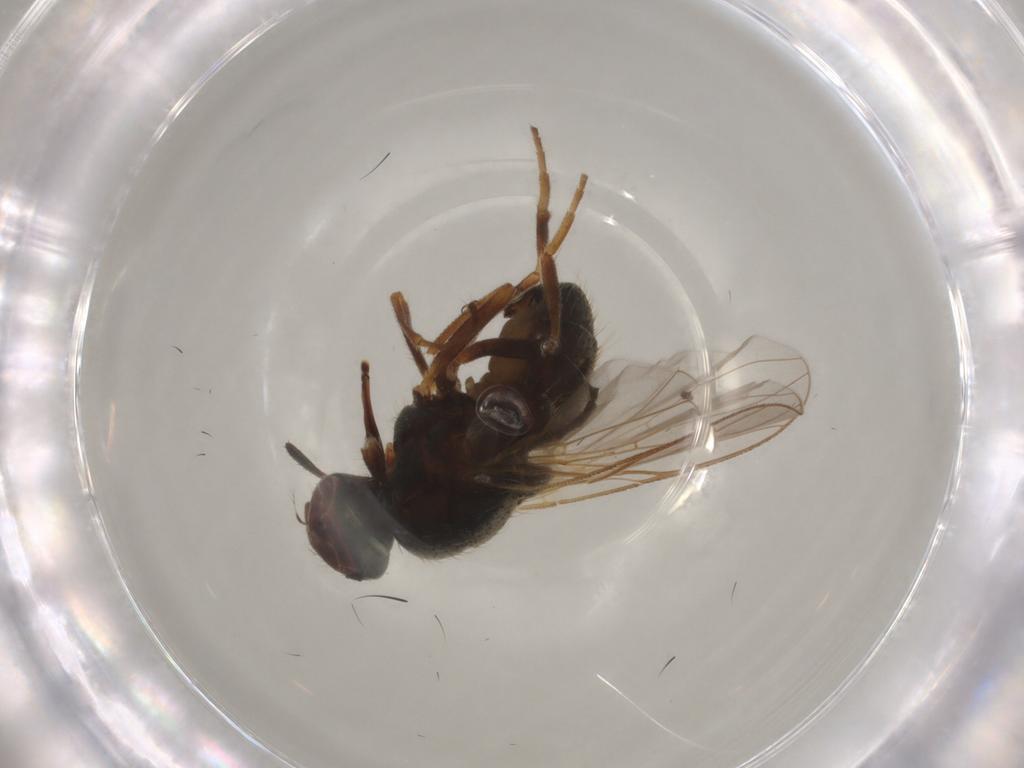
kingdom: Animalia
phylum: Arthropoda
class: Insecta
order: Diptera
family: Muscidae
